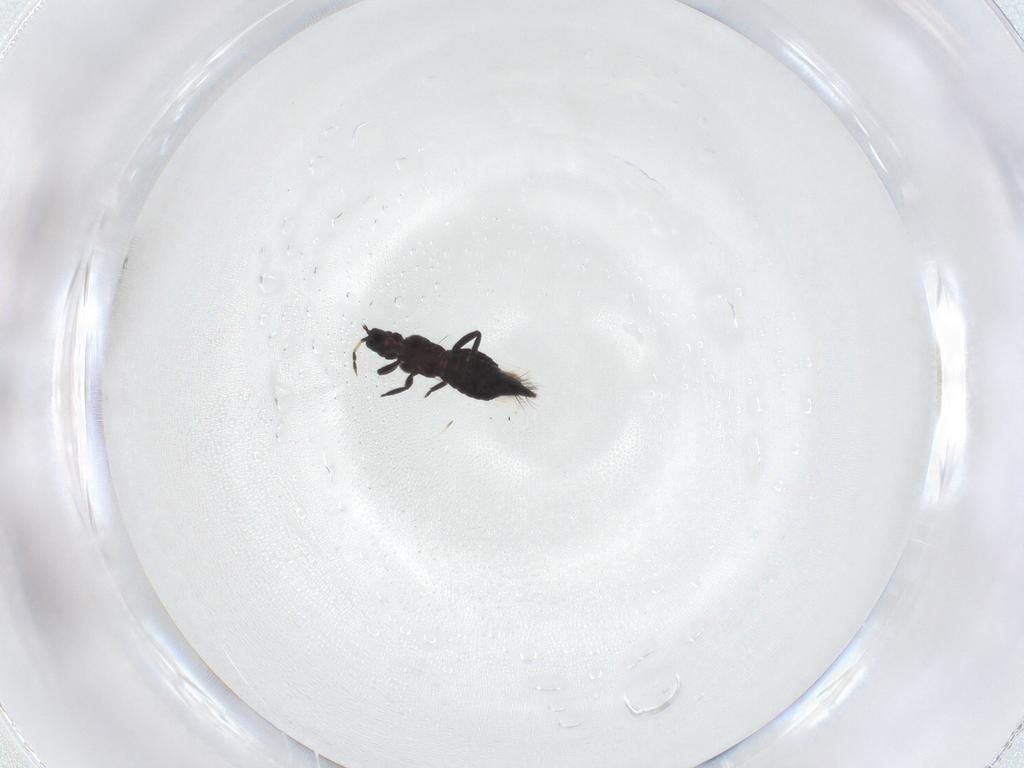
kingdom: Animalia
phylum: Arthropoda
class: Insecta
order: Thysanoptera
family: Aeolothripidae
